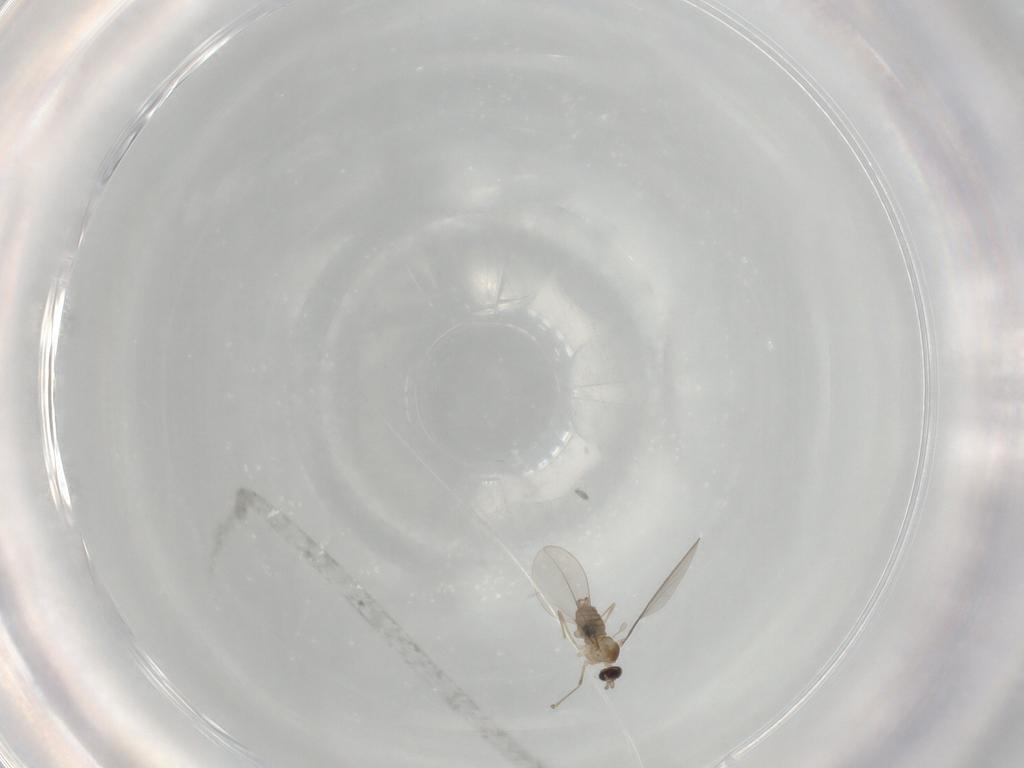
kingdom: Animalia
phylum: Arthropoda
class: Insecta
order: Diptera
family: Cecidomyiidae
